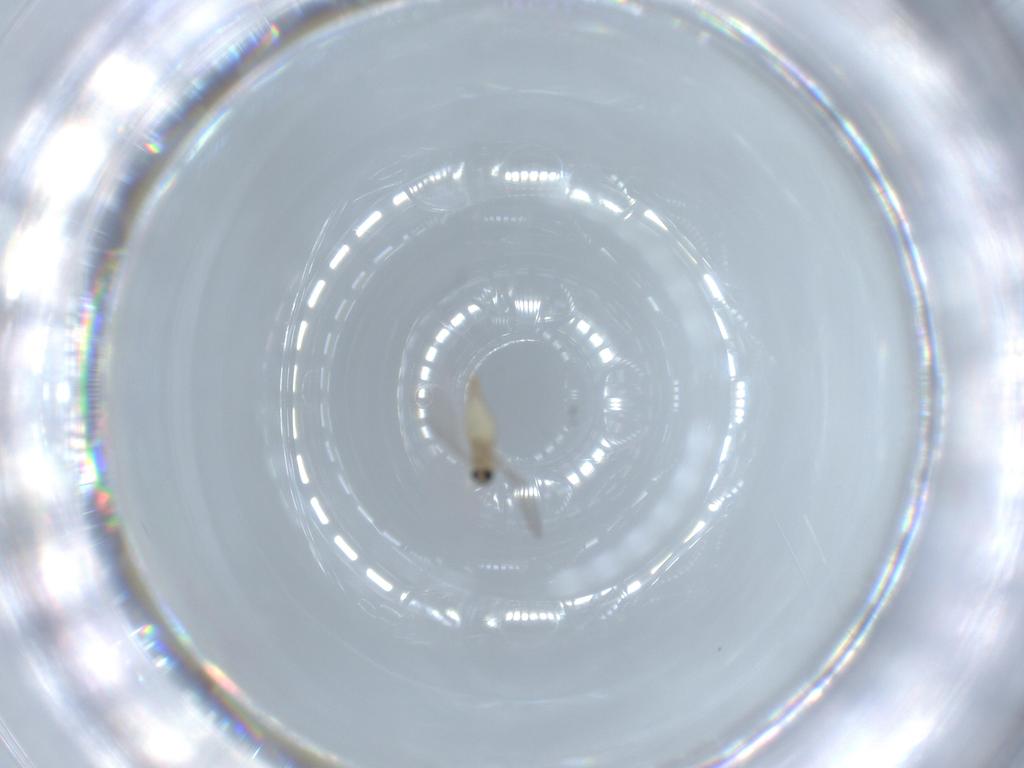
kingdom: Animalia
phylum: Arthropoda
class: Insecta
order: Diptera
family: Cecidomyiidae
